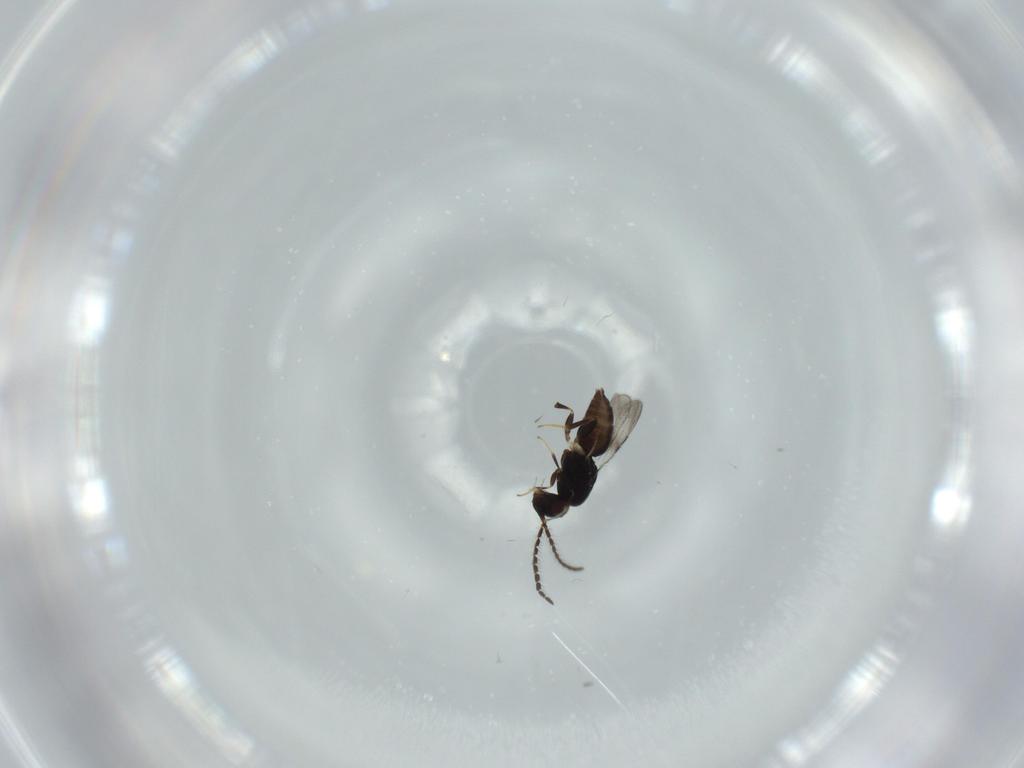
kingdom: Animalia
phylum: Arthropoda
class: Insecta
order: Hymenoptera
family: Ceraphronidae
